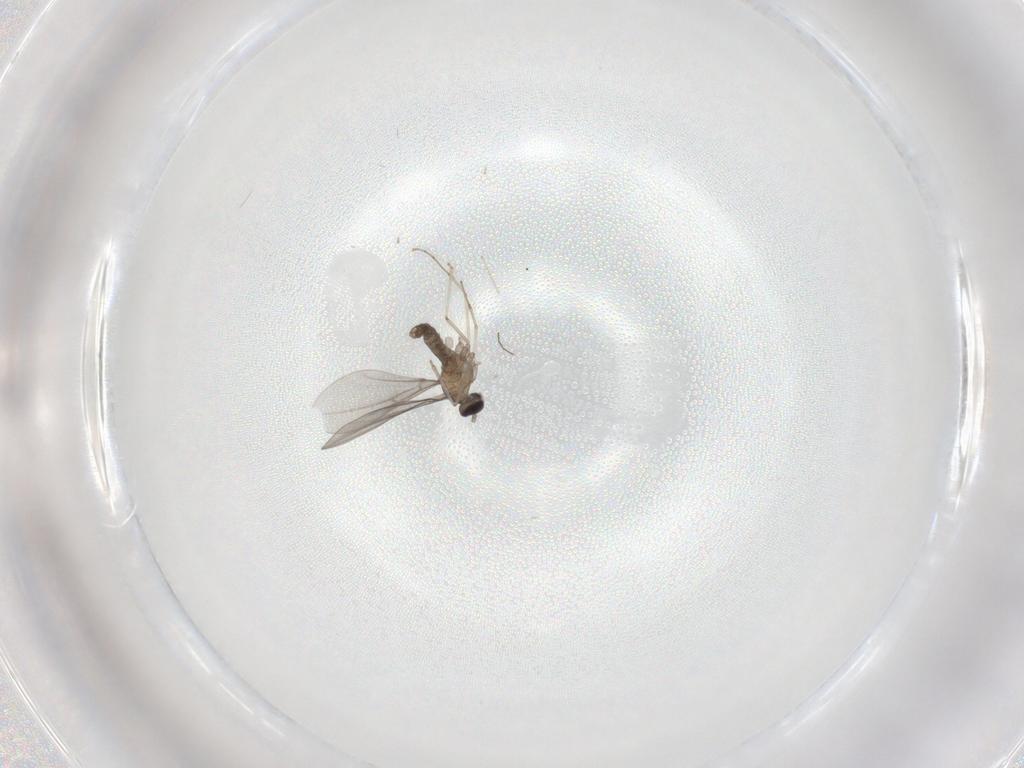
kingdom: Animalia
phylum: Arthropoda
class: Insecta
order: Diptera
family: Cecidomyiidae
